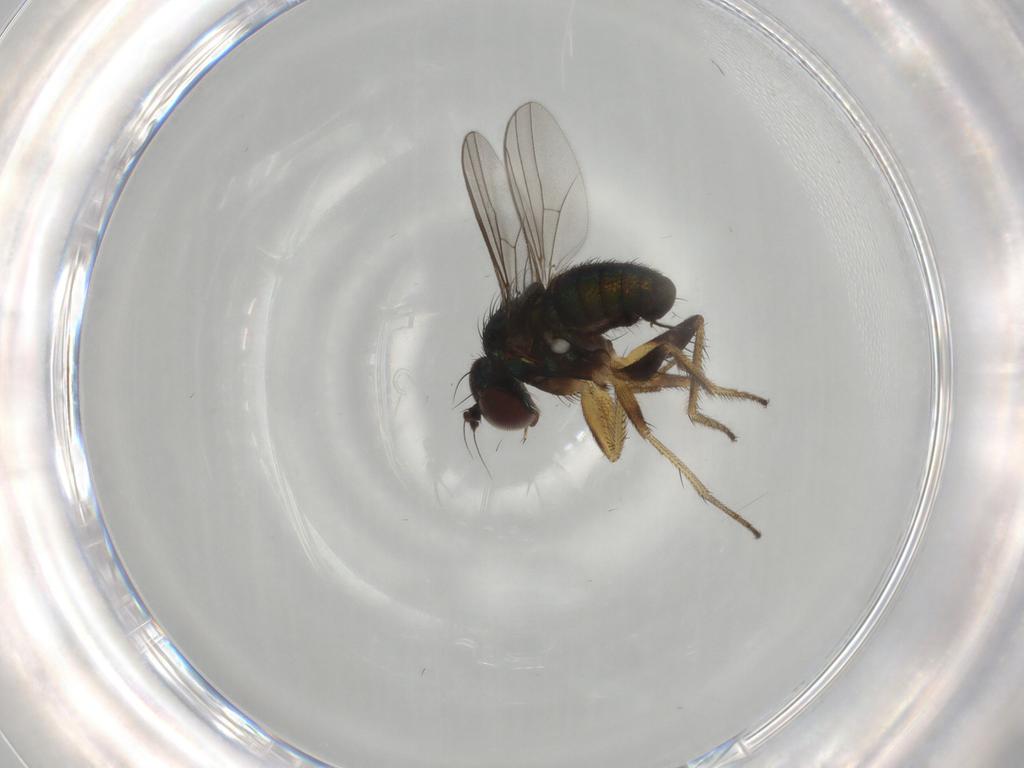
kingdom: Animalia
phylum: Arthropoda
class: Insecta
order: Diptera
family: Dolichopodidae
